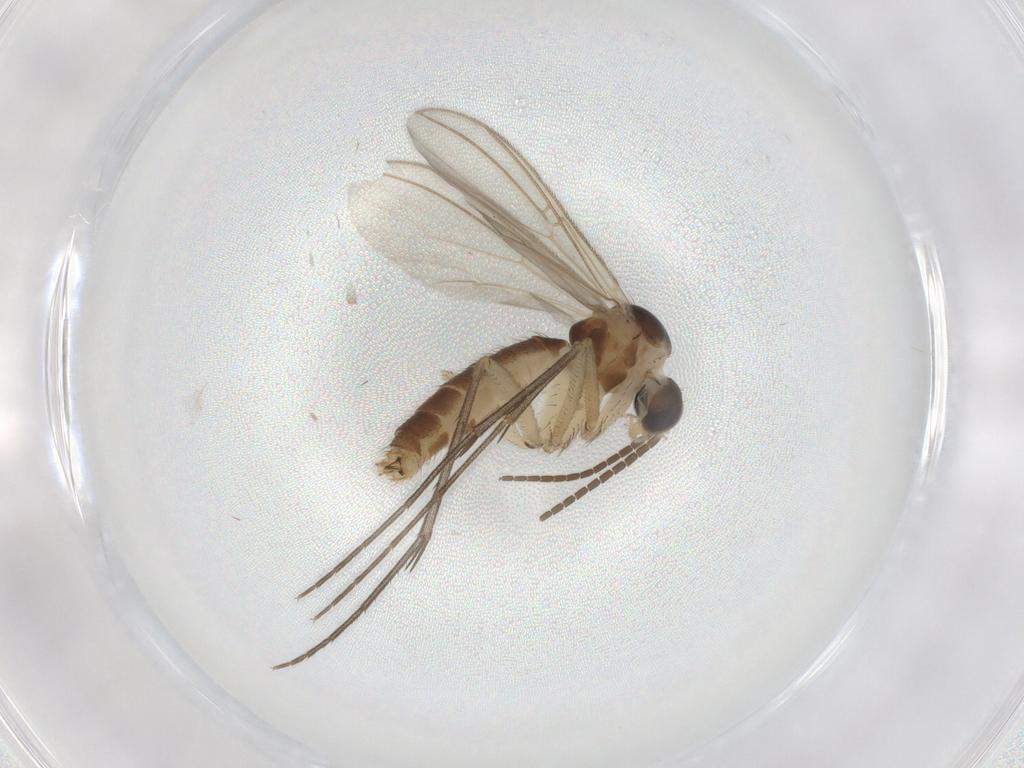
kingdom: Animalia
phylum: Arthropoda
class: Insecta
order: Diptera
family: Mycetophilidae
